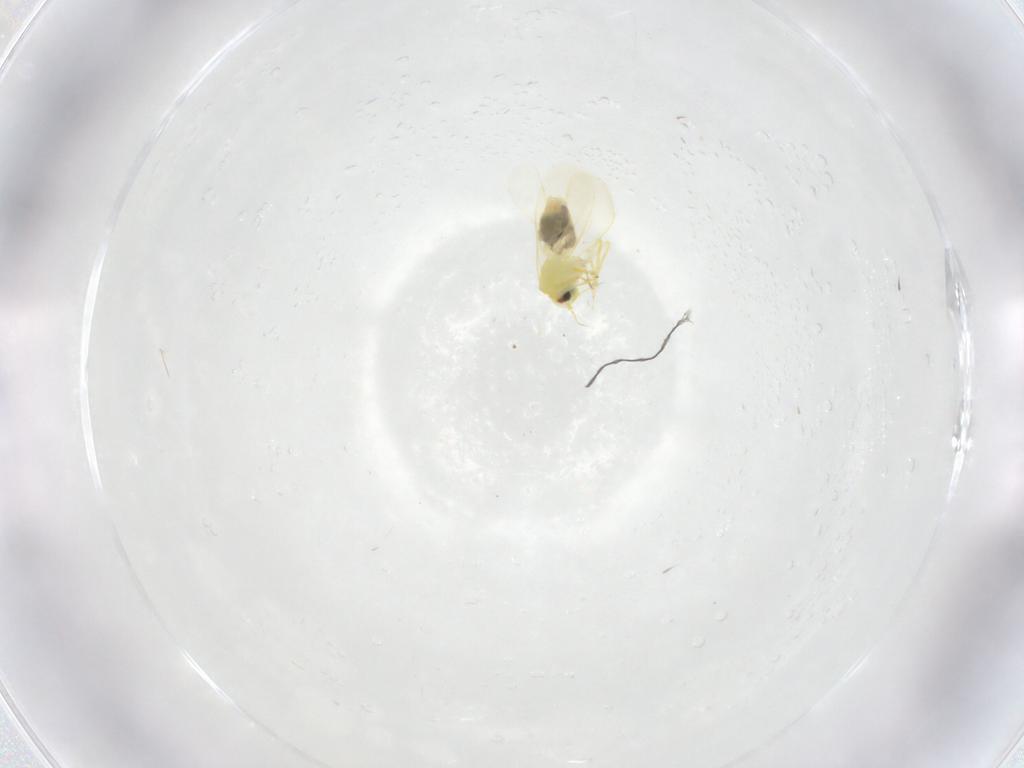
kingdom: Animalia
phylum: Arthropoda
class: Insecta
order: Hemiptera
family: Aleyrodidae
